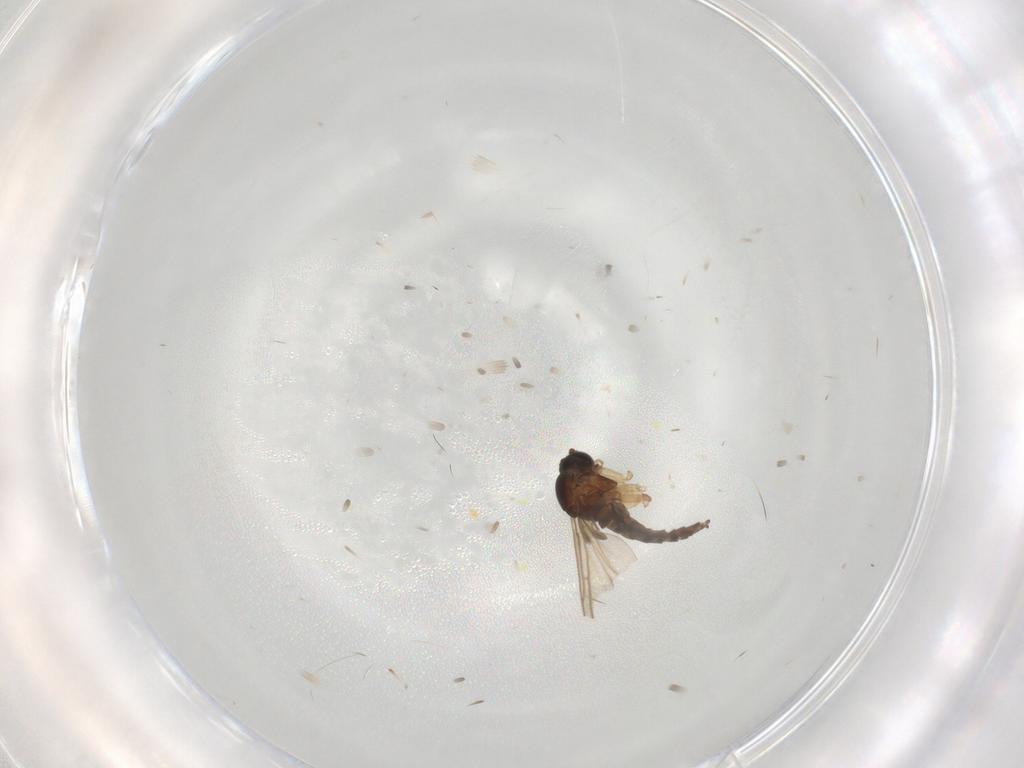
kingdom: Animalia
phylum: Arthropoda
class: Insecta
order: Diptera
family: Sciaridae
